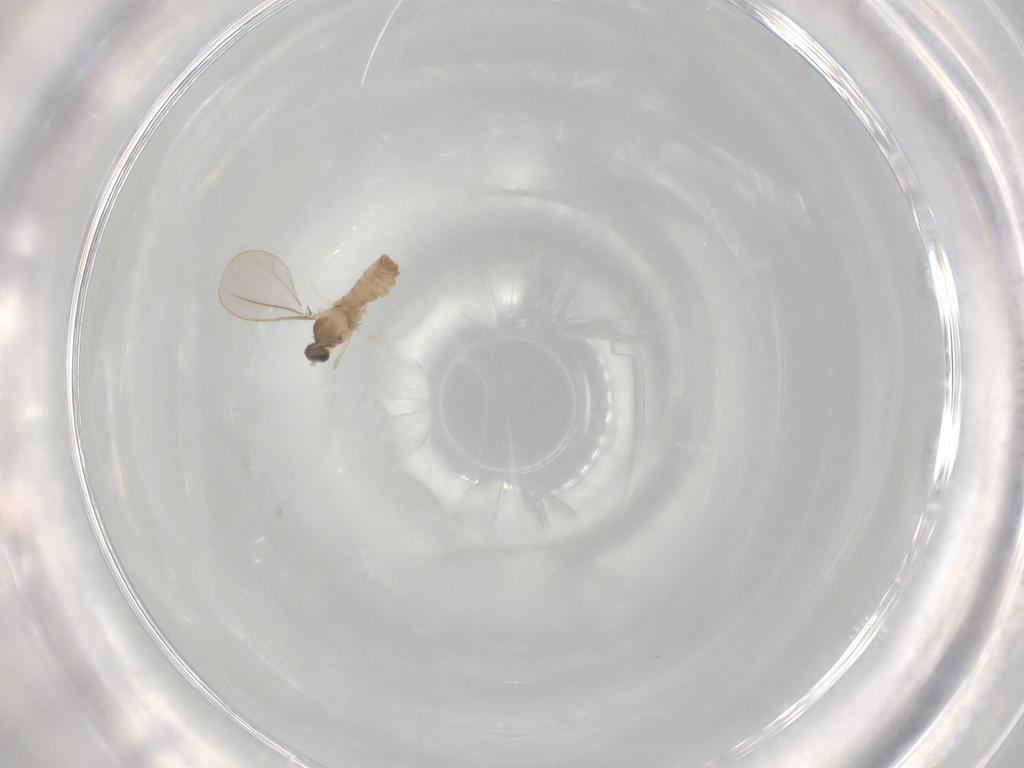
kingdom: Animalia
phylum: Arthropoda
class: Insecta
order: Diptera
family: Cecidomyiidae
